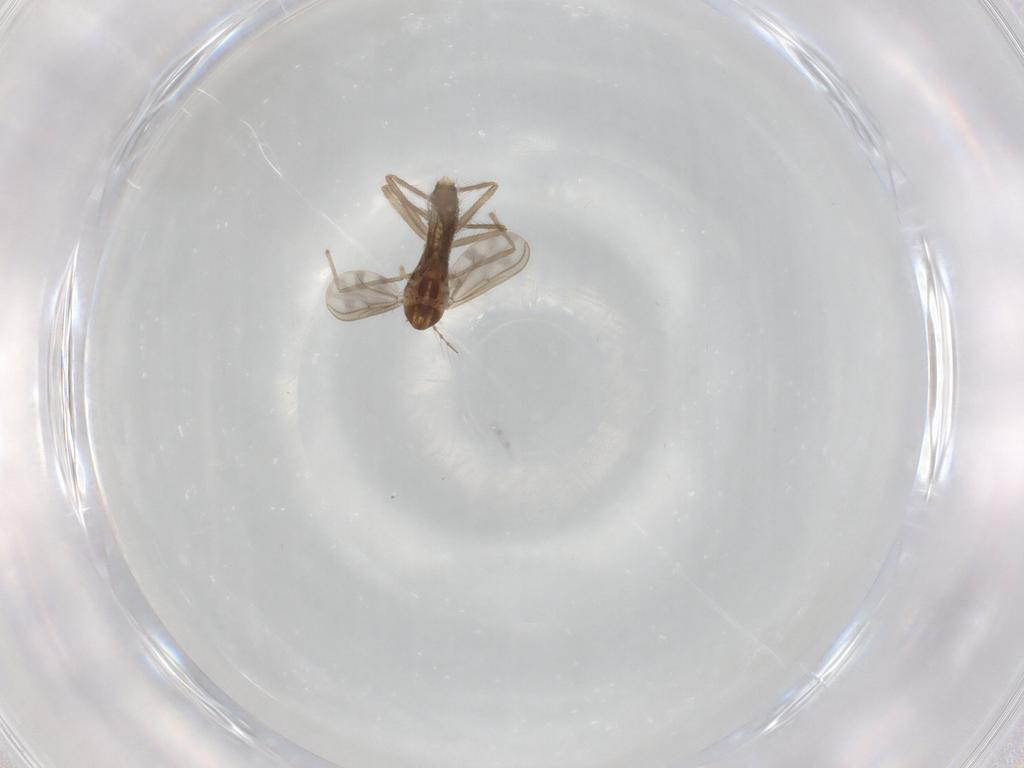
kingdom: Animalia
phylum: Arthropoda
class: Insecta
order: Diptera
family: Chironomidae
